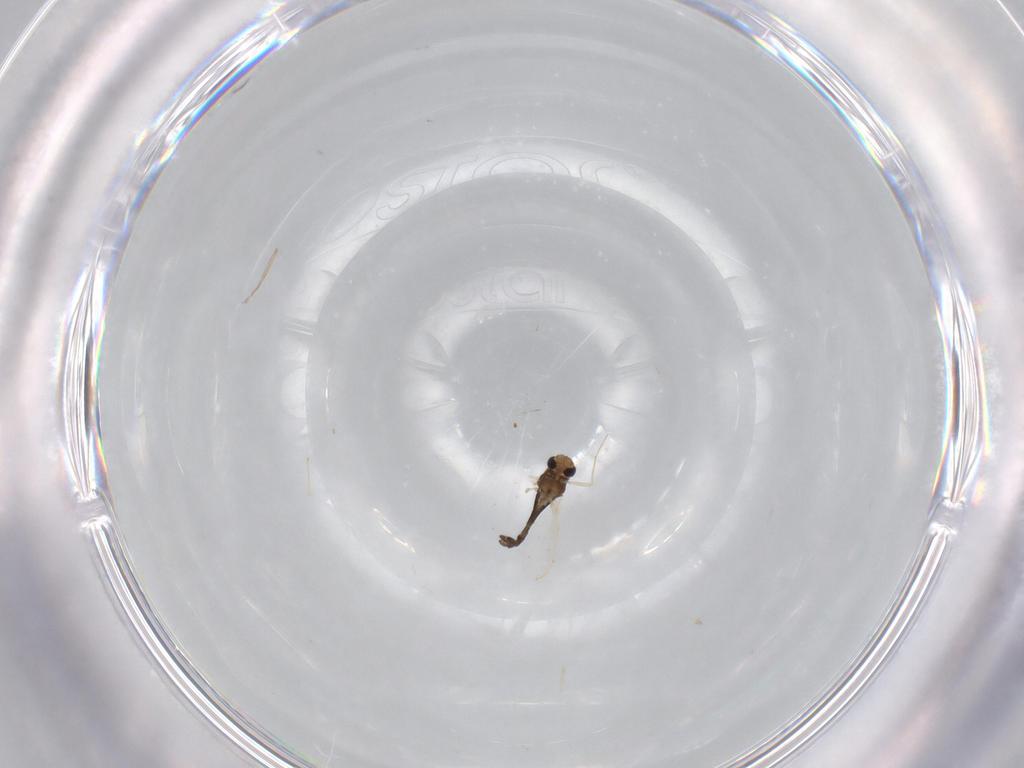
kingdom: Animalia
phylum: Arthropoda
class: Insecta
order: Diptera
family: Chironomidae
